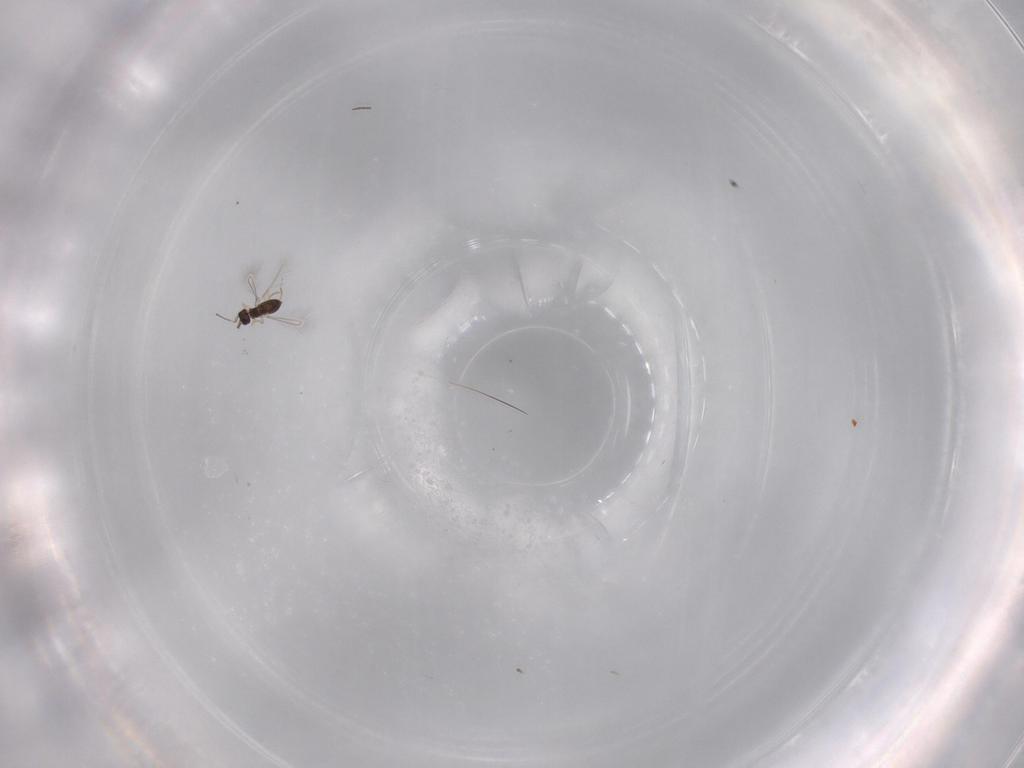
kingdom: Animalia
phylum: Arthropoda
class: Insecta
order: Hymenoptera
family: Mymaridae
